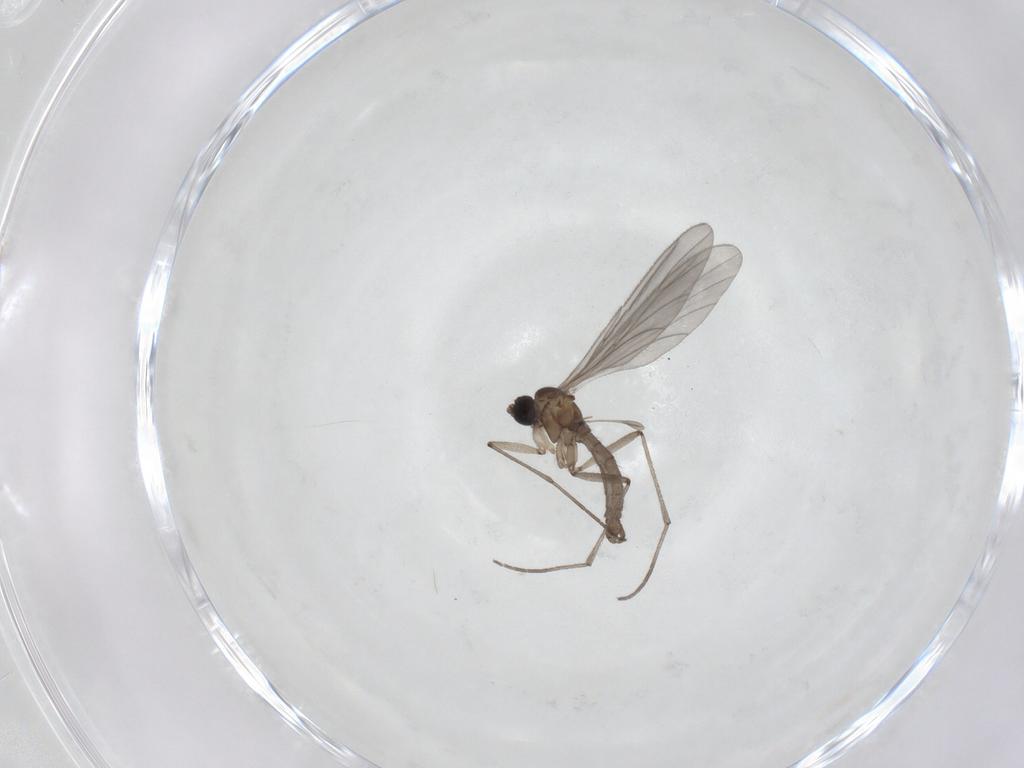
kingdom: Animalia
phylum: Arthropoda
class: Insecta
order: Diptera
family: Sciaridae
